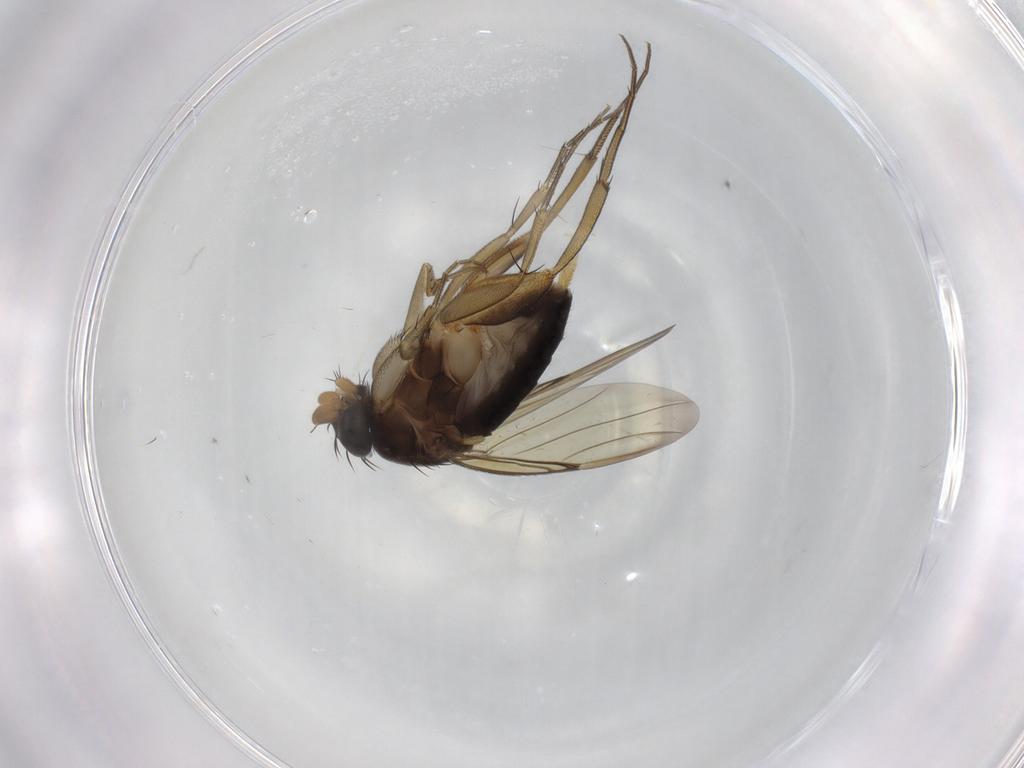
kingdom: Animalia
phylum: Arthropoda
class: Insecta
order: Diptera
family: Phoridae
